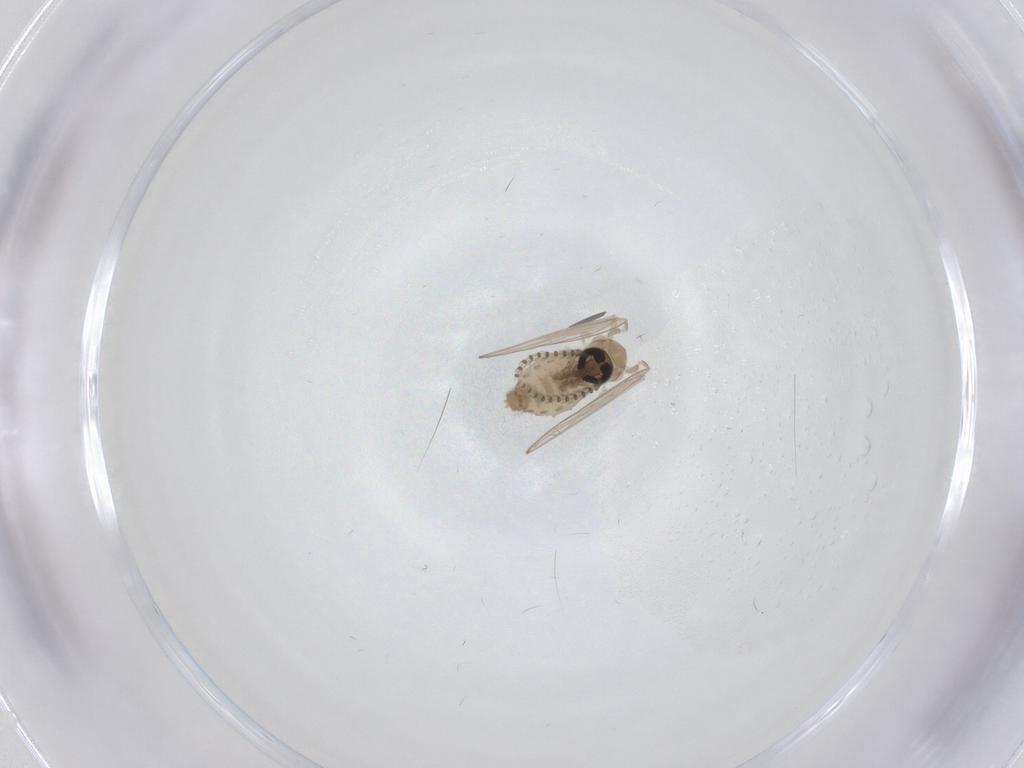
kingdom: Animalia
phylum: Arthropoda
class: Insecta
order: Diptera
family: Psychodidae
